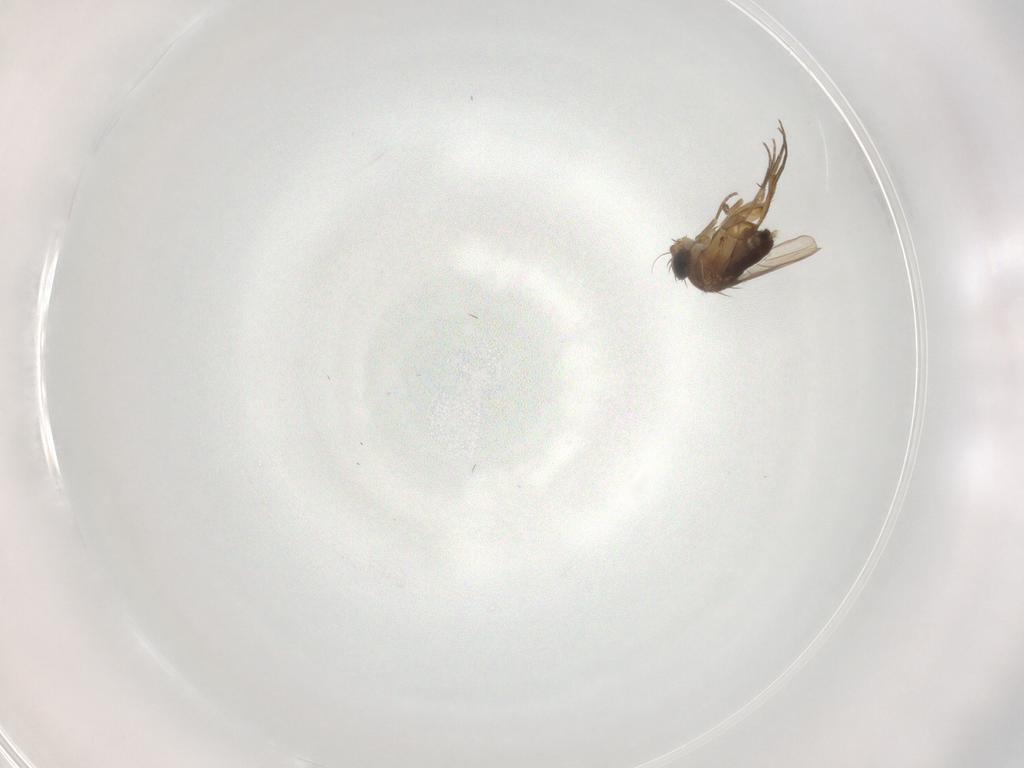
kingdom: Animalia
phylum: Arthropoda
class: Insecta
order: Diptera
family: Phoridae
